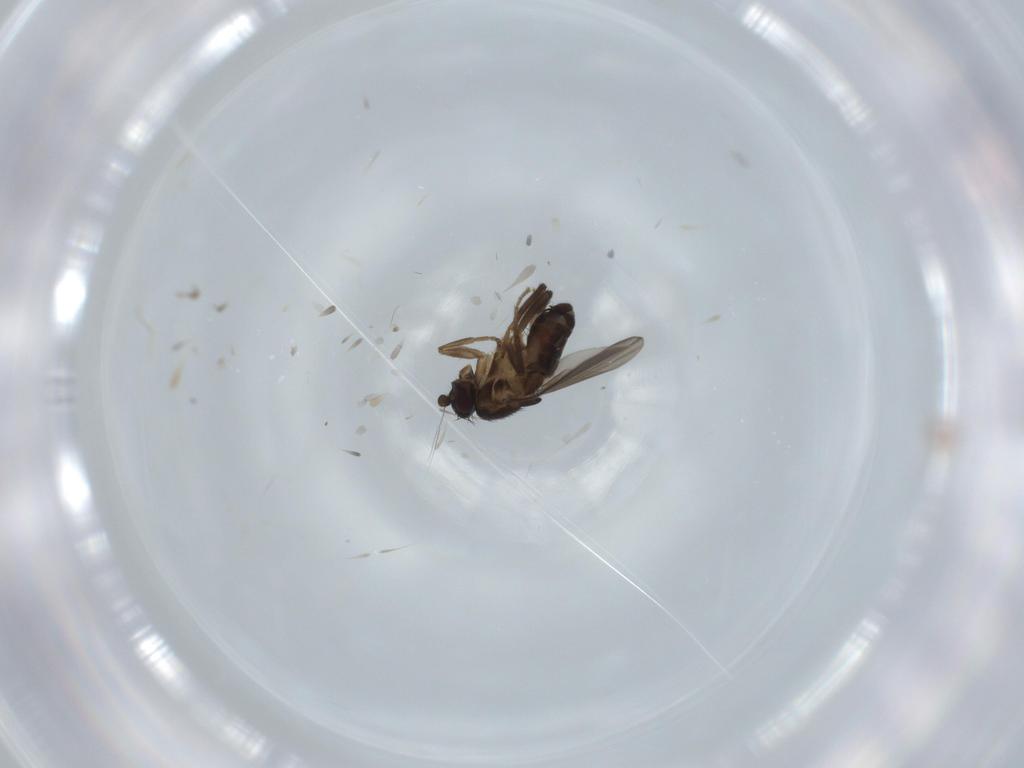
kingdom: Animalia
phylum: Arthropoda
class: Insecta
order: Diptera
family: Sphaeroceridae
